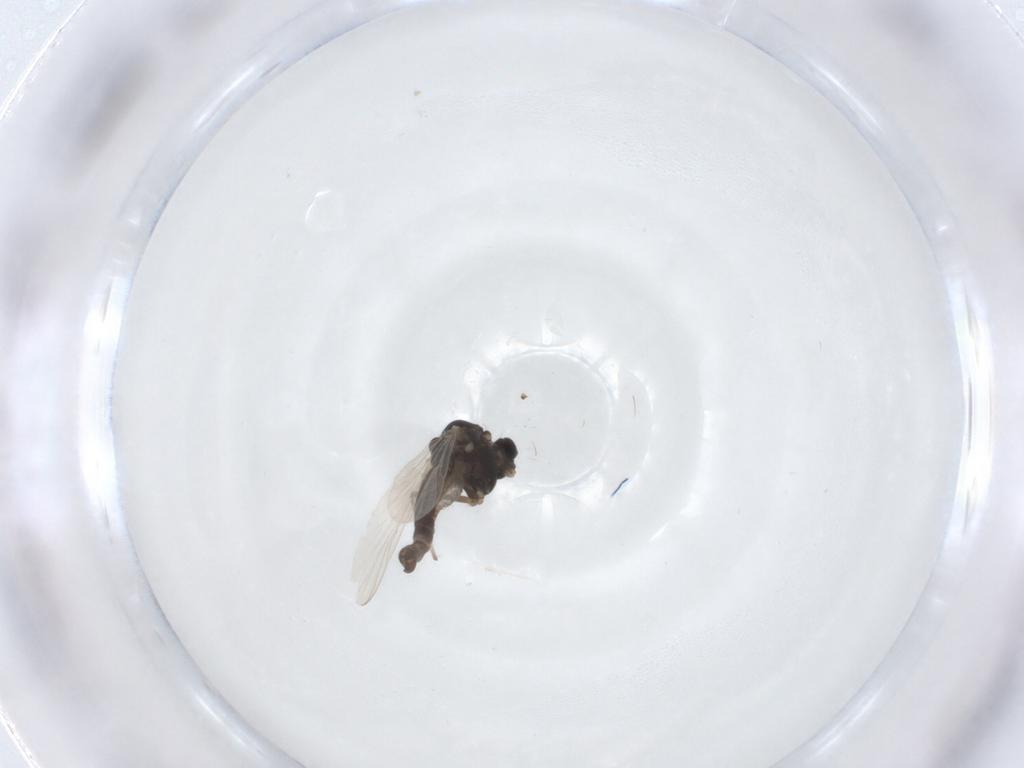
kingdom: Animalia
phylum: Arthropoda
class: Insecta
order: Diptera
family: Chironomidae
